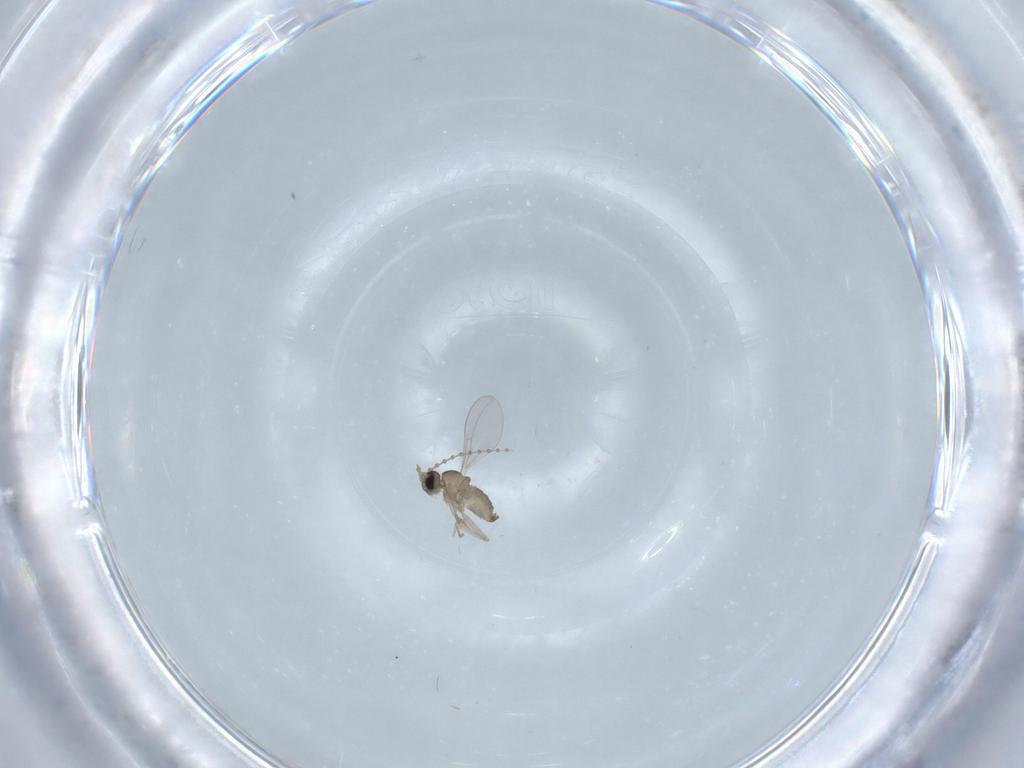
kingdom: Animalia
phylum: Arthropoda
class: Insecta
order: Diptera
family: Cecidomyiidae
